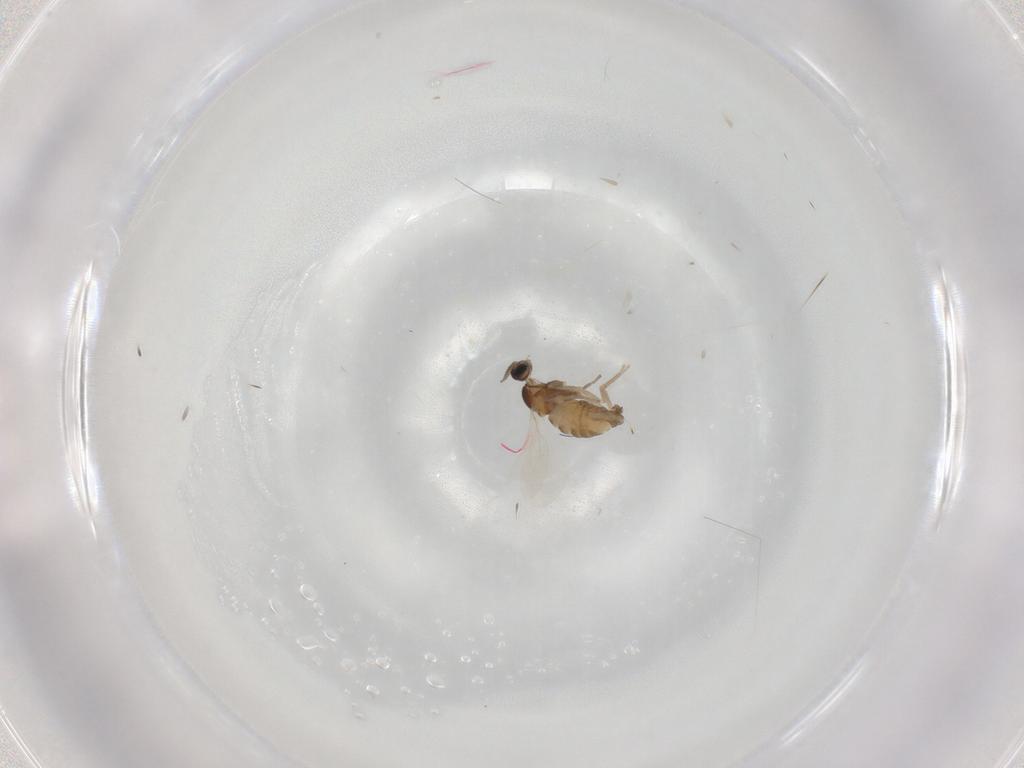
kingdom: Animalia
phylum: Arthropoda
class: Insecta
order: Diptera
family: Cecidomyiidae
